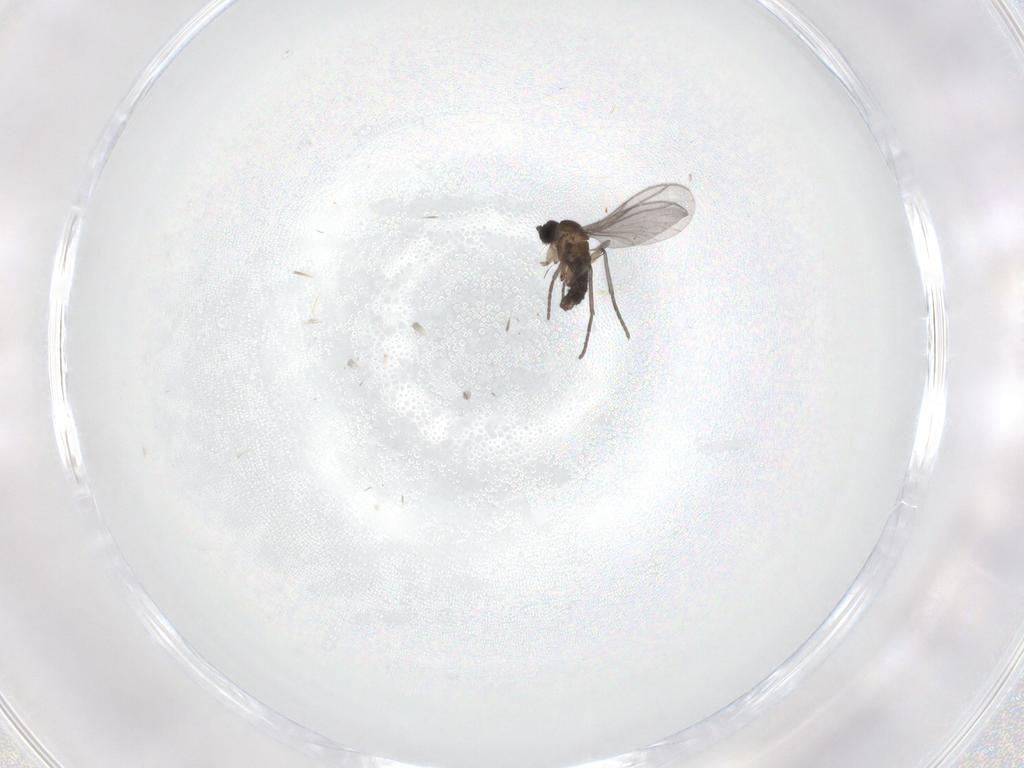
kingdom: Animalia
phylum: Arthropoda
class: Insecta
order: Diptera
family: Sciaridae
